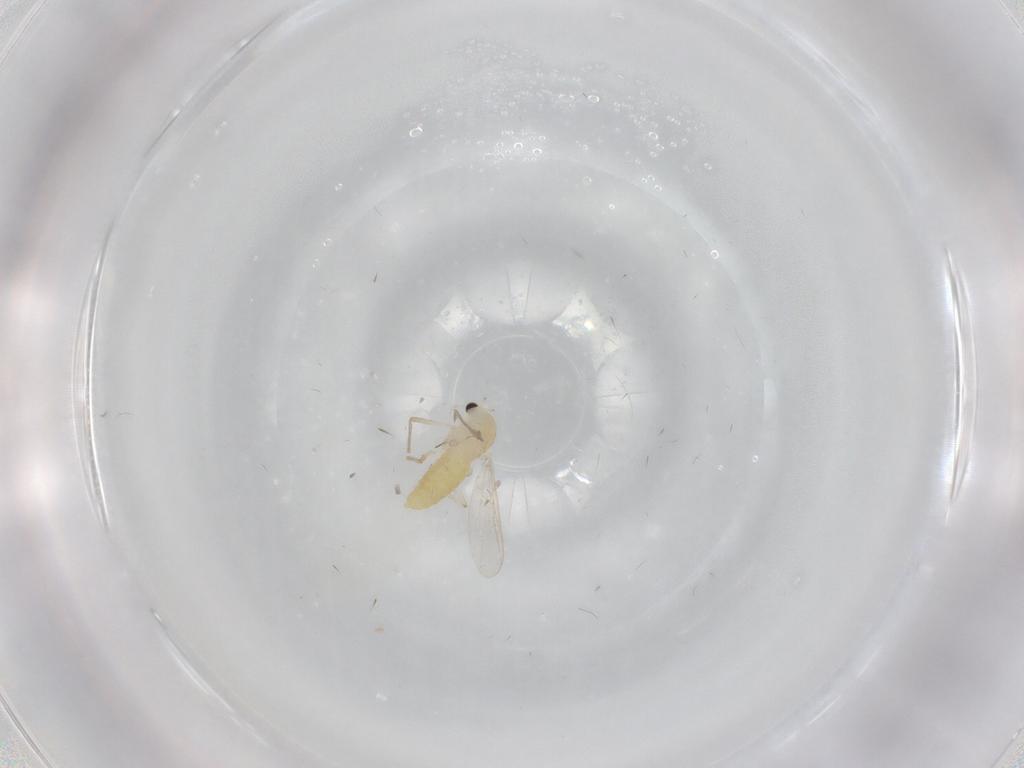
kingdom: Animalia
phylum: Arthropoda
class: Insecta
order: Diptera
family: Chironomidae
